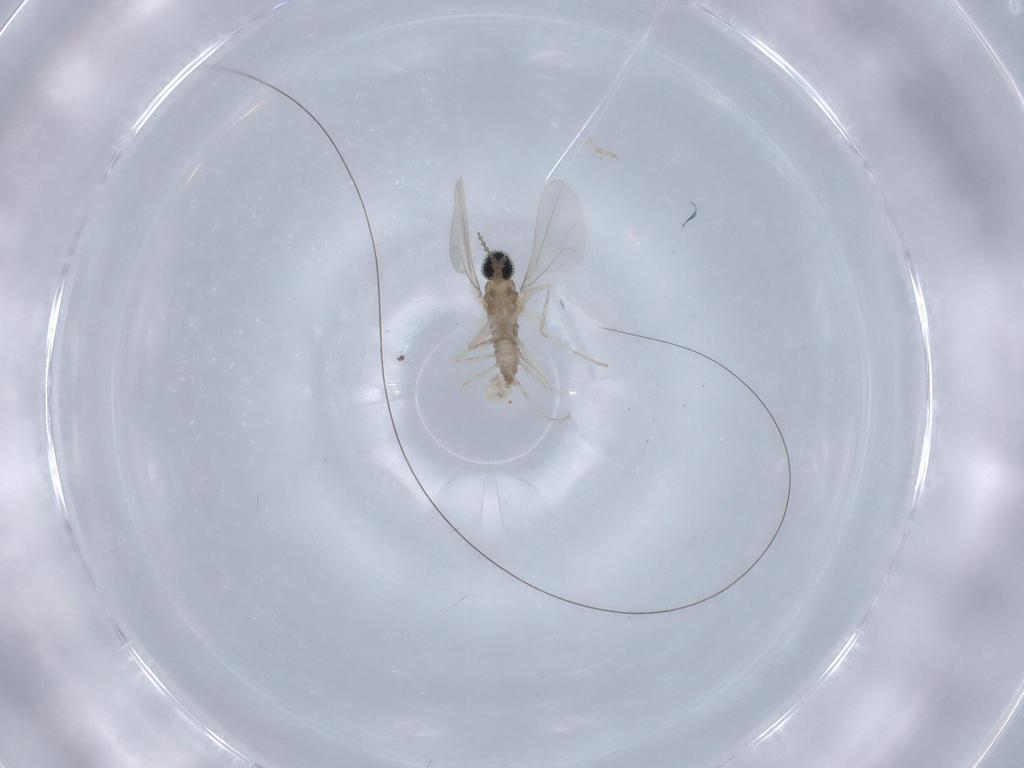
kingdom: Animalia
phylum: Arthropoda
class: Insecta
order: Diptera
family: Cecidomyiidae
